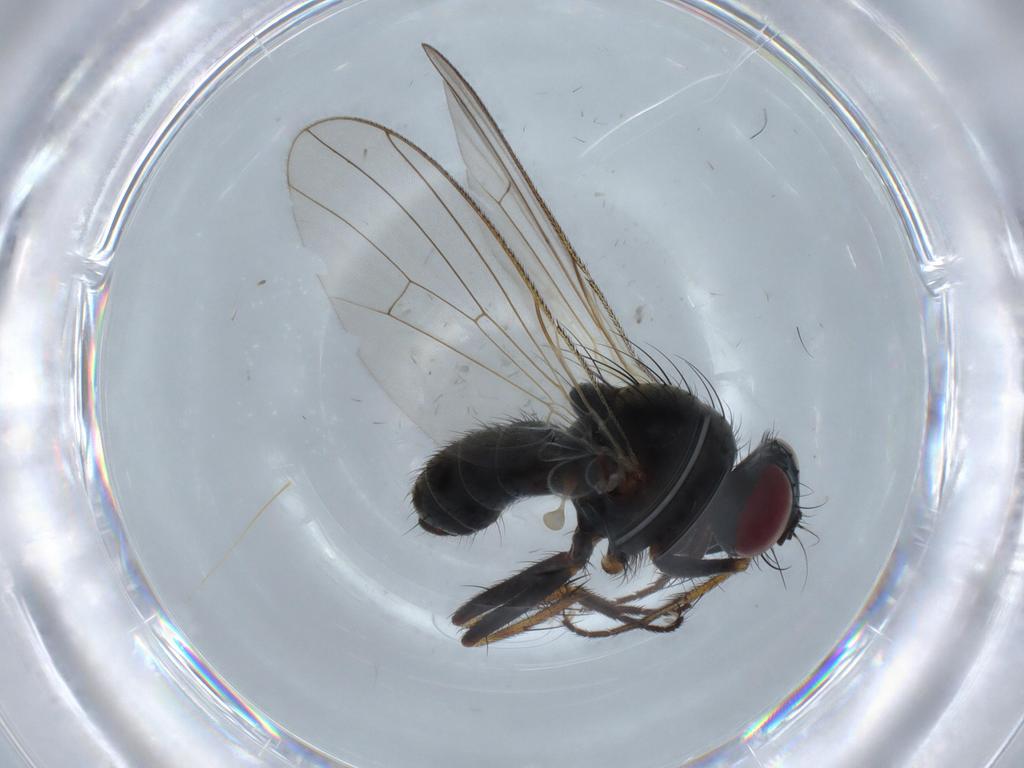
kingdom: Animalia
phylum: Arthropoda
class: Insecta
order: Diptera
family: Muscidae
